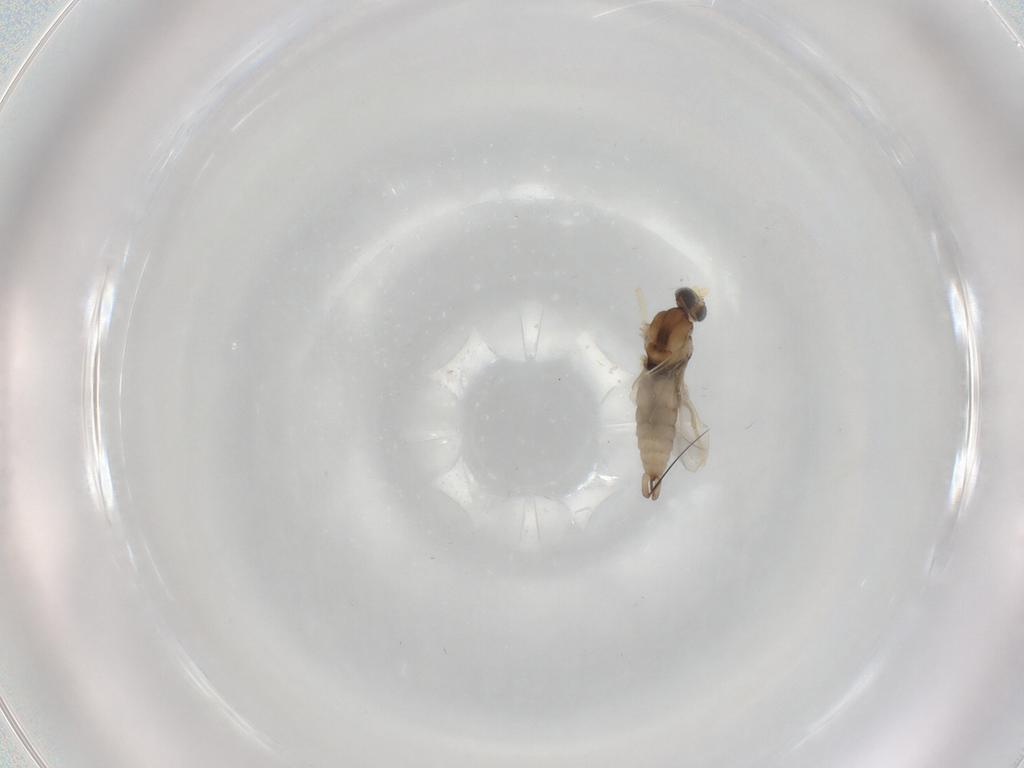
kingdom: Animalia
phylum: Arthropoda
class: Insecta
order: Diptera
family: Cecidomyiidae
